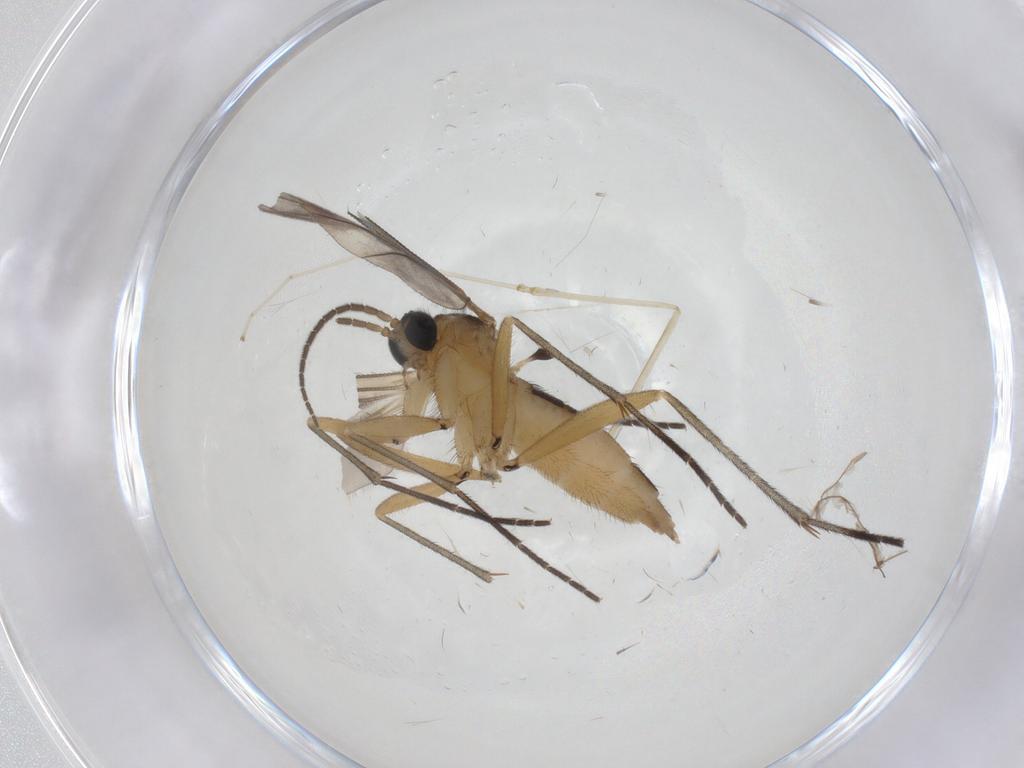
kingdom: Animalia
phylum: Arthropoda
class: Insecta
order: Diptera
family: Sciaridae
